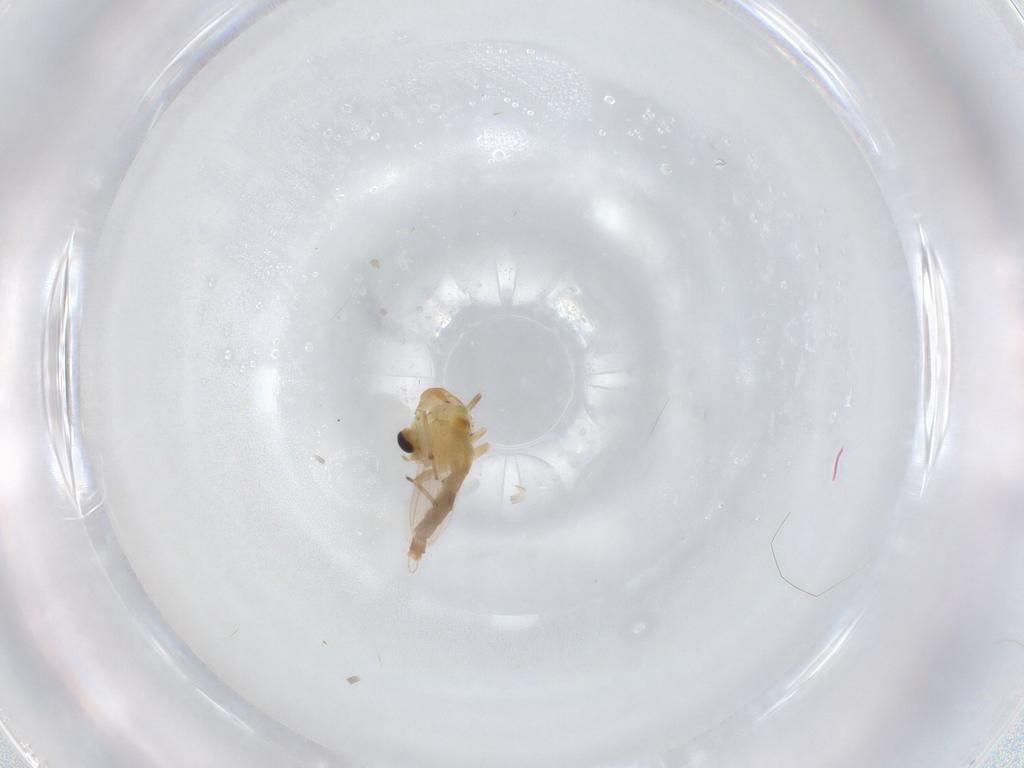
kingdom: Animalia
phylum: Arthropoda
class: Insecta
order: Diptera
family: Chironomidae
